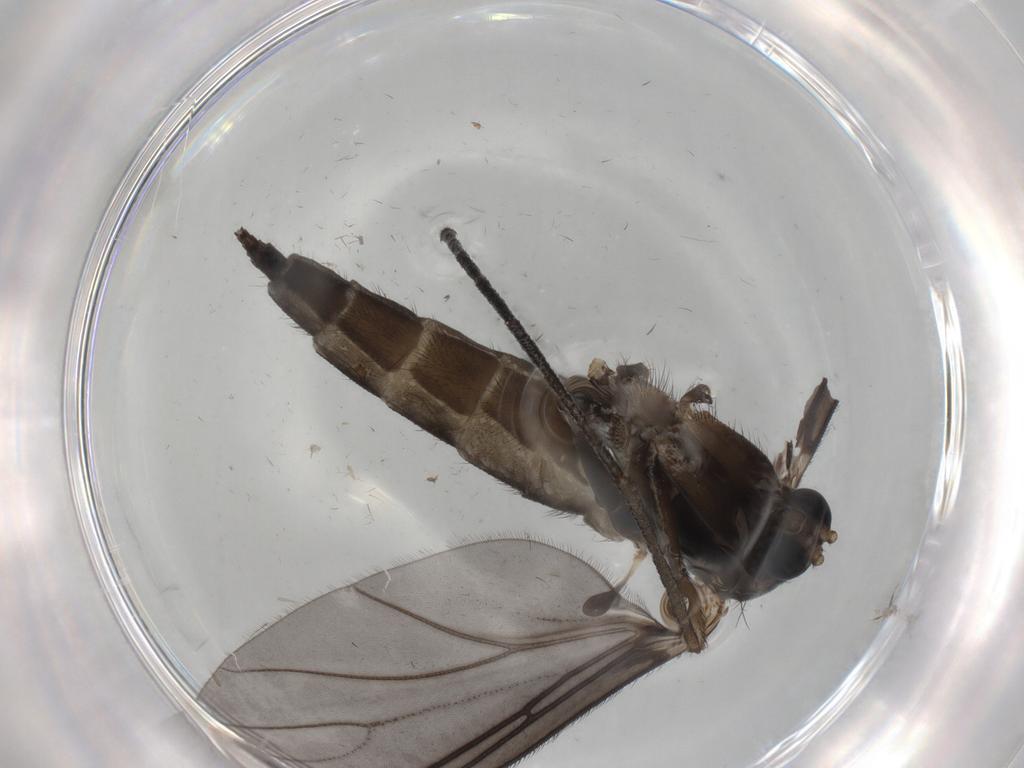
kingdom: Animalia
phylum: Arthropoda
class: Insecta
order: Diptera
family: Sciaridae
